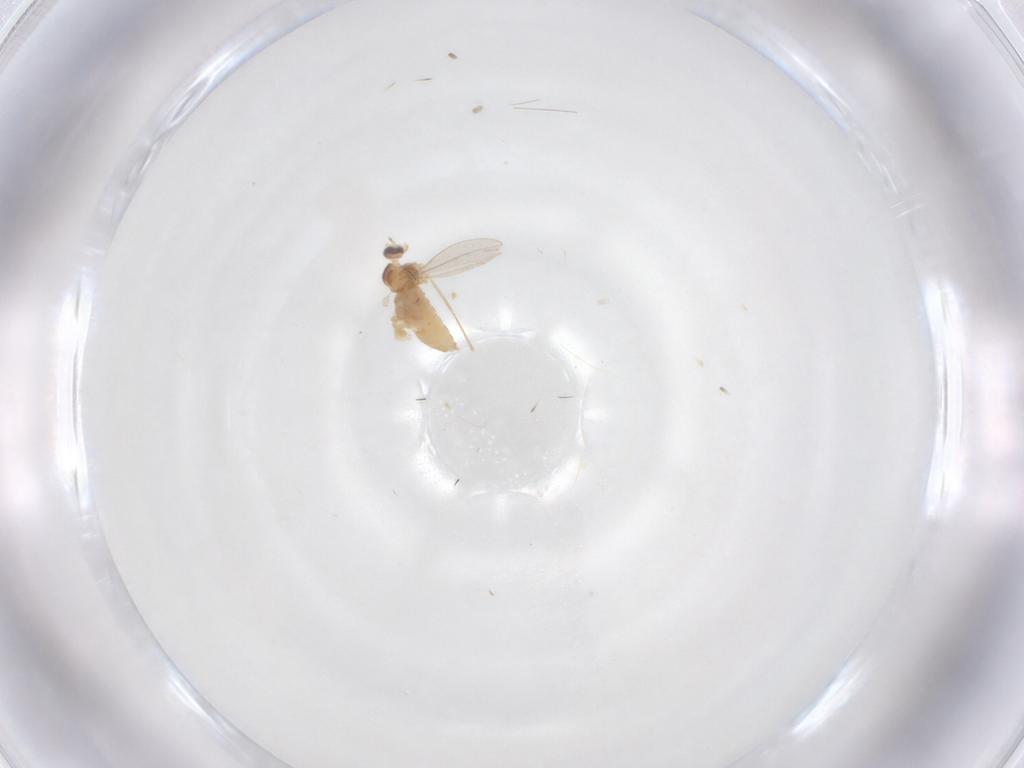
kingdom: Animalia
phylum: Arthropoda
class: Insecta
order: Diptera
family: Cecidomyiidae
